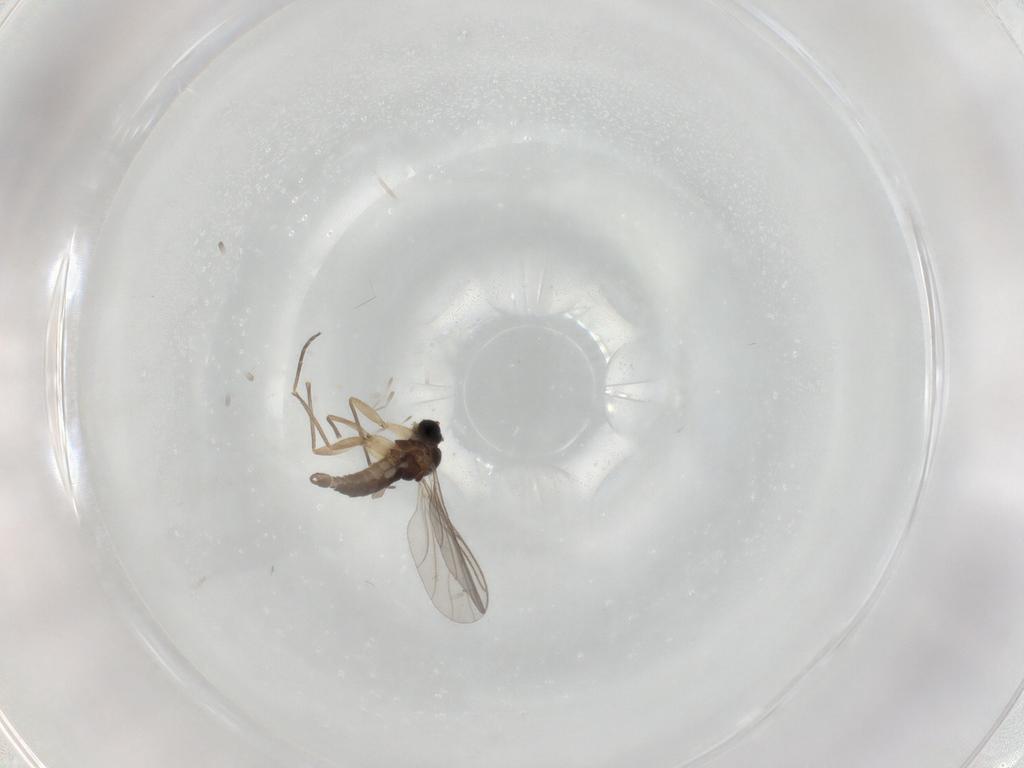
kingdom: Animalia
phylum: Arthropoda
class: Insecta
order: Diptera
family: Sciaridae
